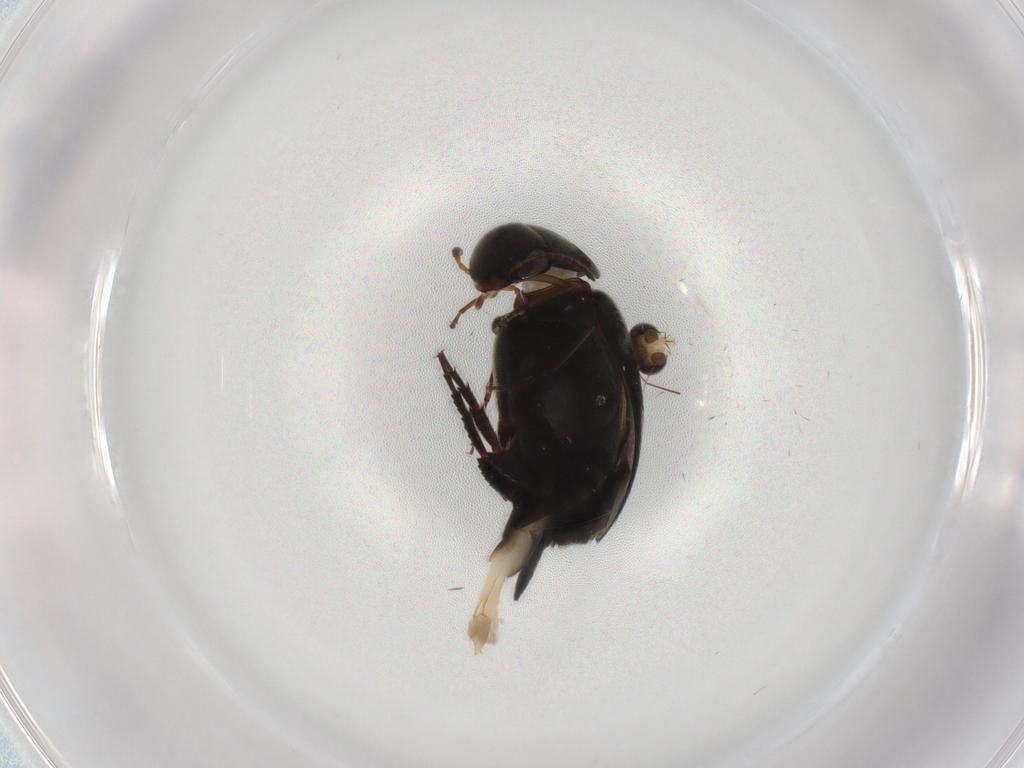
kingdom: Animalia
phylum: Arthropoda
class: Insecta
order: Coleoptera
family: Mordellidae
